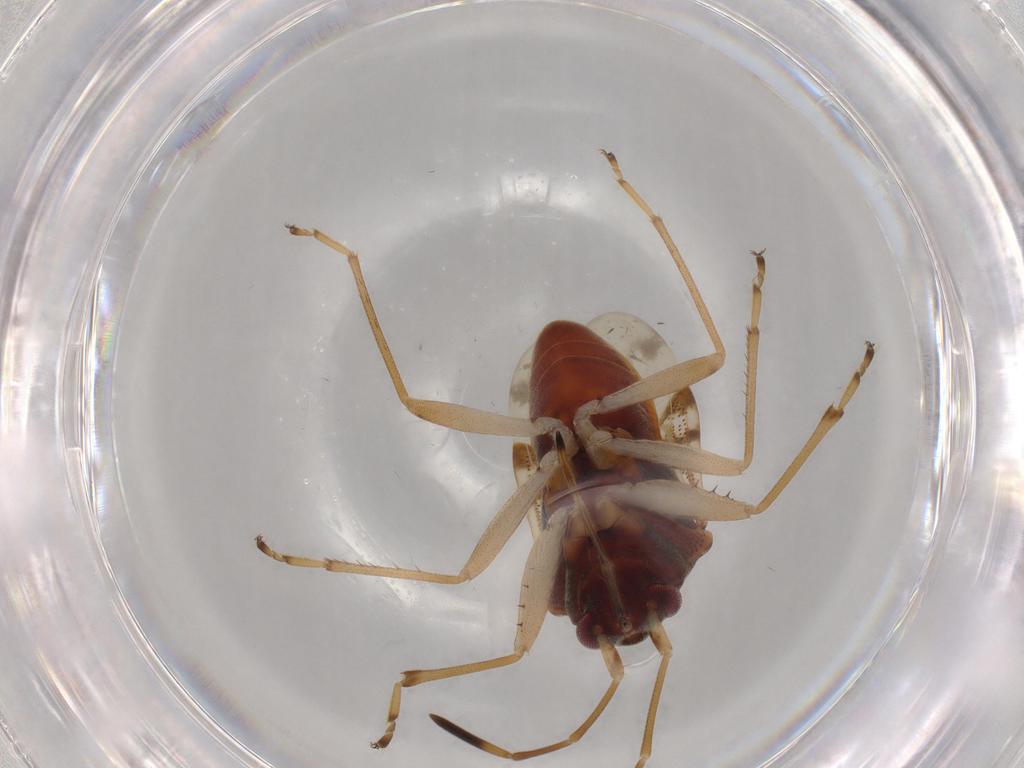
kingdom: Animalia
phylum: Arthropoda
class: Insecta
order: Hemiptera
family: Rhyparochromidae
